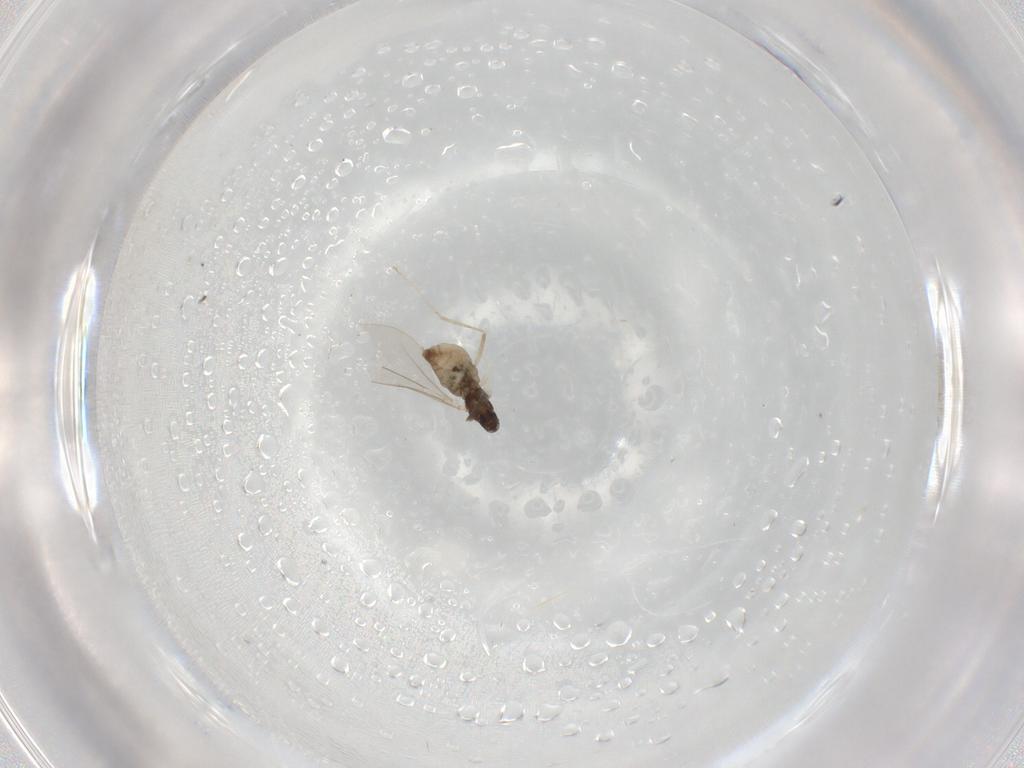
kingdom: Animalia
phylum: Arthropoda
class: Insecta
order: Diptera
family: Cecidomyiidae
